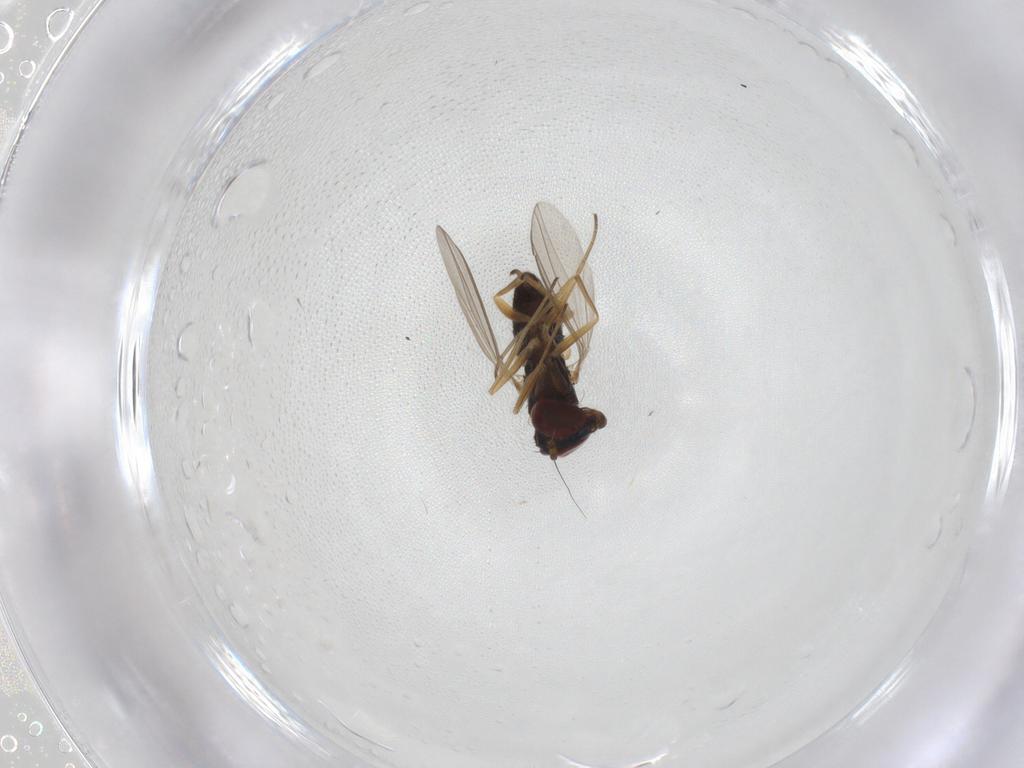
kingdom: Animalia
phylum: Arthropoda
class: Insecta
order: Diptera
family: Dolichopodidae
